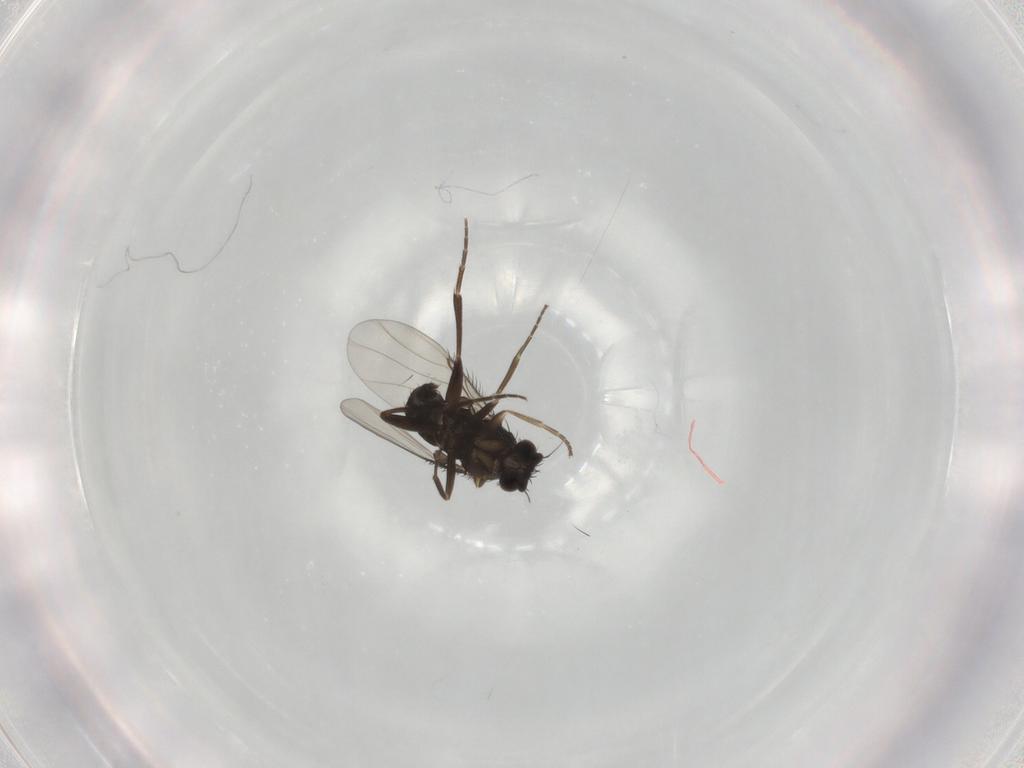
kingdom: Animalia
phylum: Arthropoda
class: Insecta
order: Diptera
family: Phoridae
